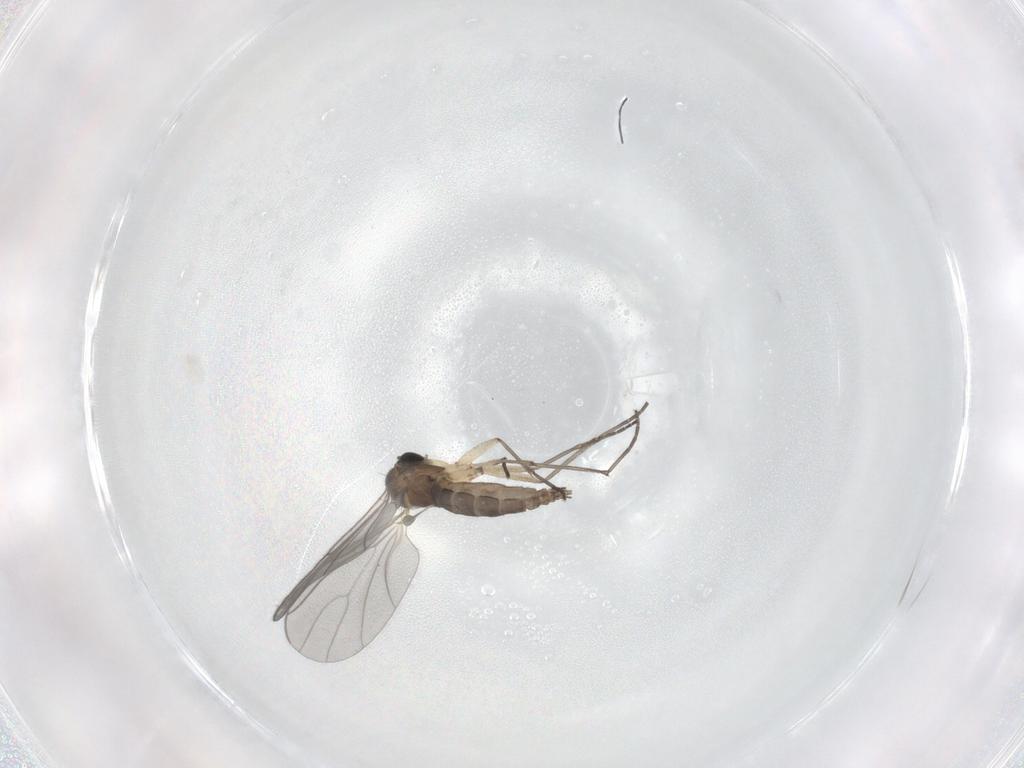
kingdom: Animalia
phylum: Arthropoda
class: Insecta
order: Diptera
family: Sciaridae
